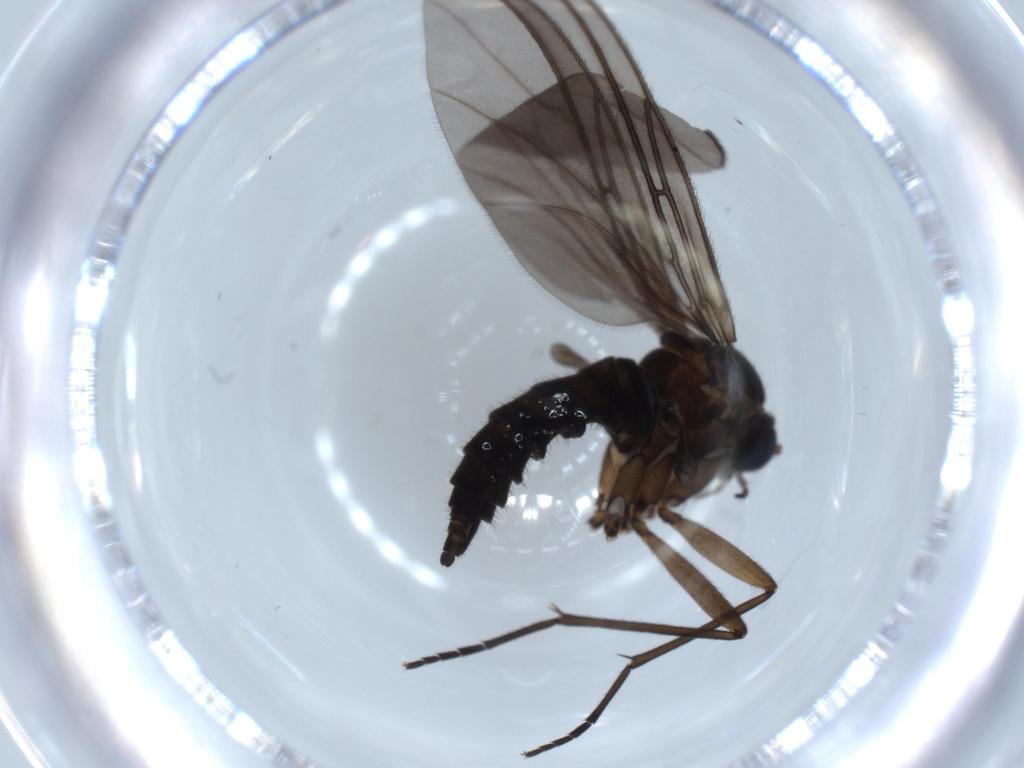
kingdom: Animalia
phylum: Arthropoda
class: Insecta
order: Diptera
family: Sciaridae
